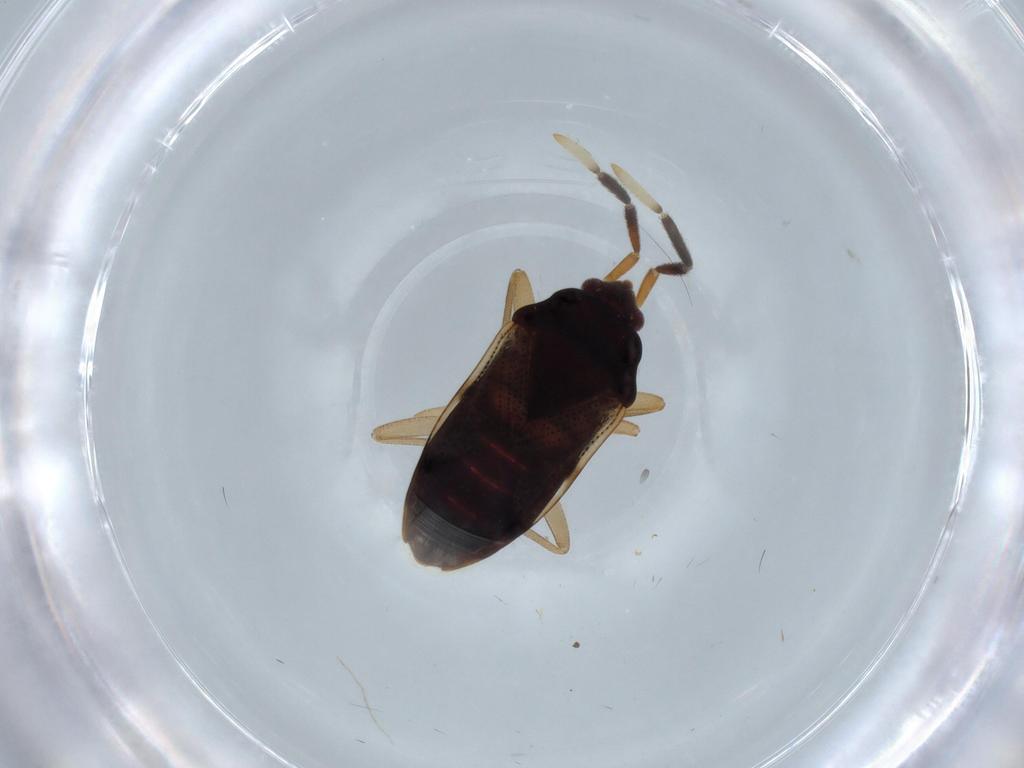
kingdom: Animalia
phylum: Arthropoda
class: Insecta
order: Hemiptera
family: Rhyparochromidae
